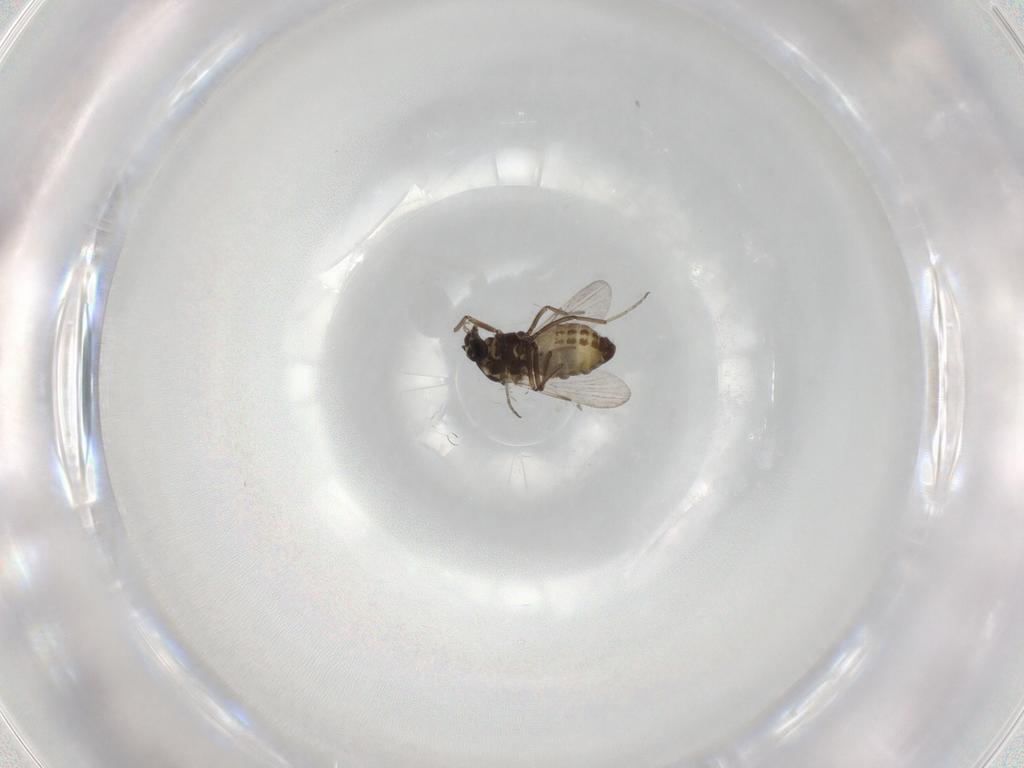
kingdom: Animalia
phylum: Arthropoda
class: Insecta
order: Diptera
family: Ceratopogonidae
